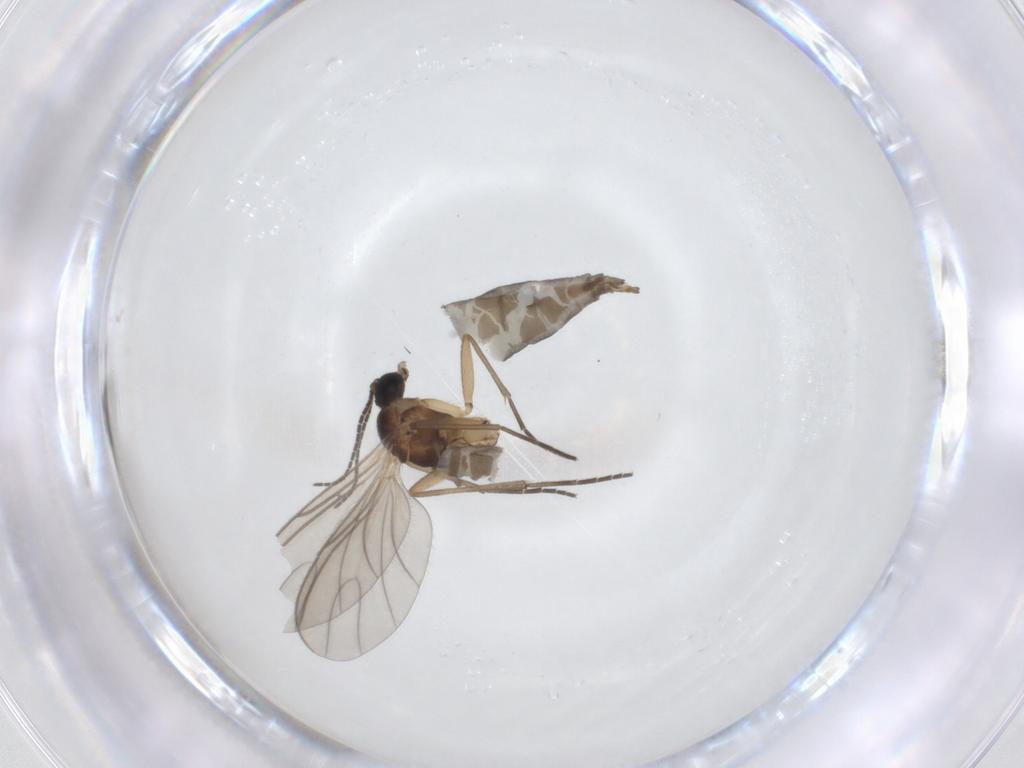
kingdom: Animalia
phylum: Arthropoda
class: Insecta
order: Diptera
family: Sciaridae
